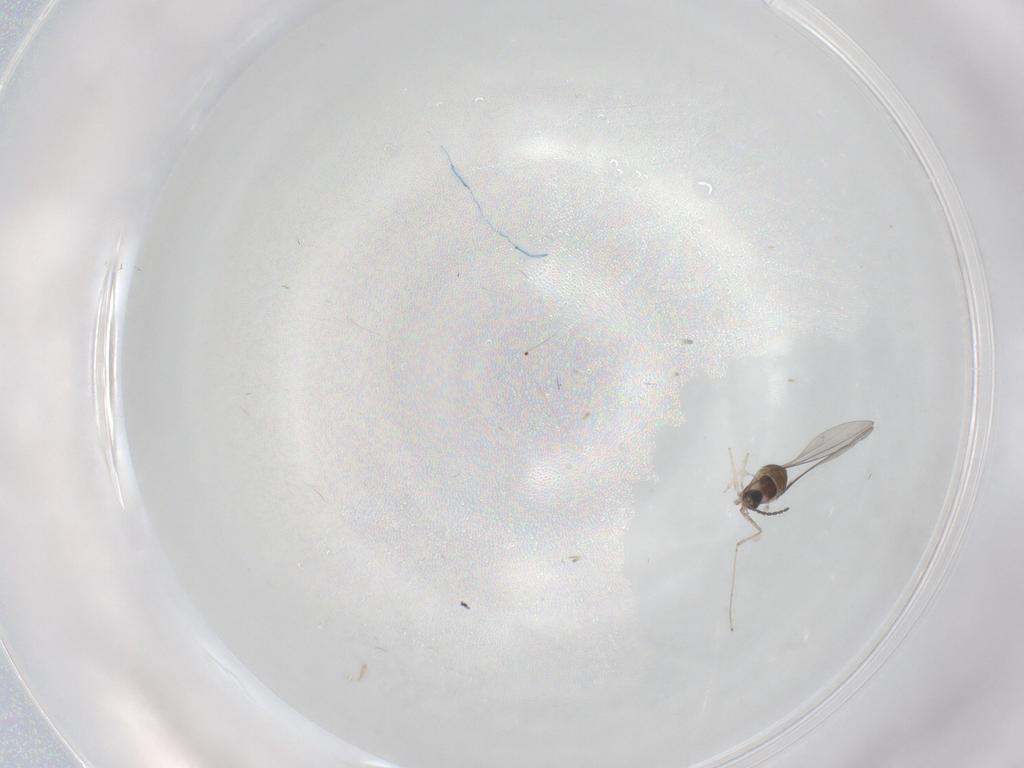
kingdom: Animalia
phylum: Arthropoda
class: Insecta
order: Diptera
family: Cecidomyiidae
